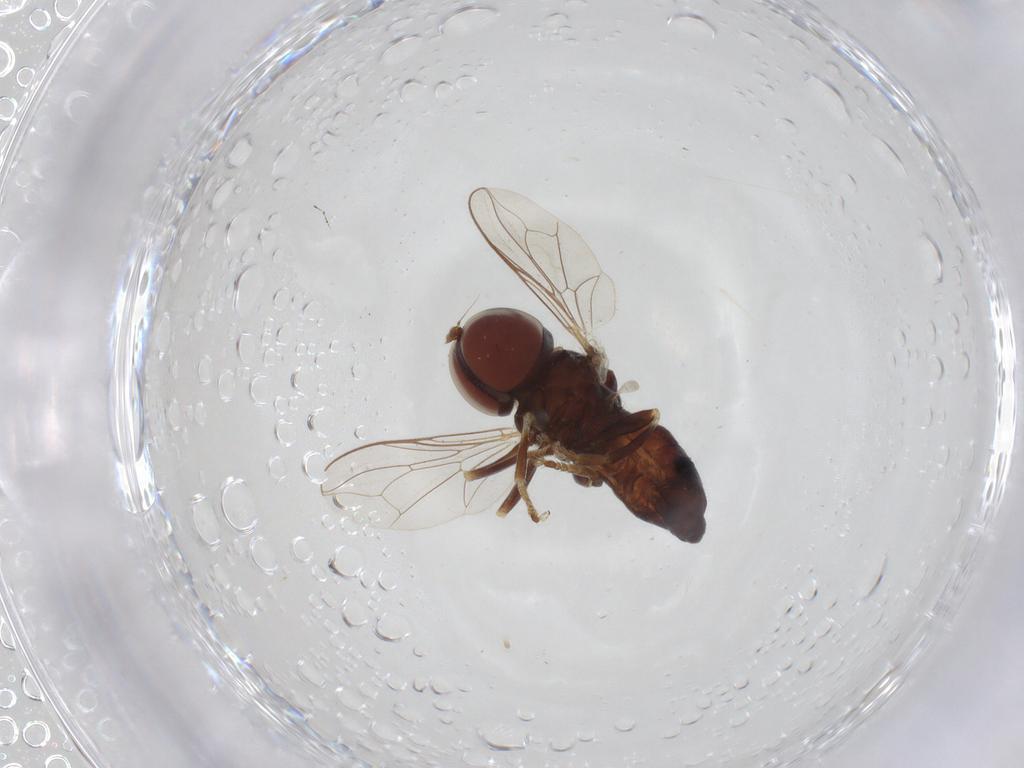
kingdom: Animalia
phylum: Arthropoda
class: Insecta
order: Diptera
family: Pipunculidae
